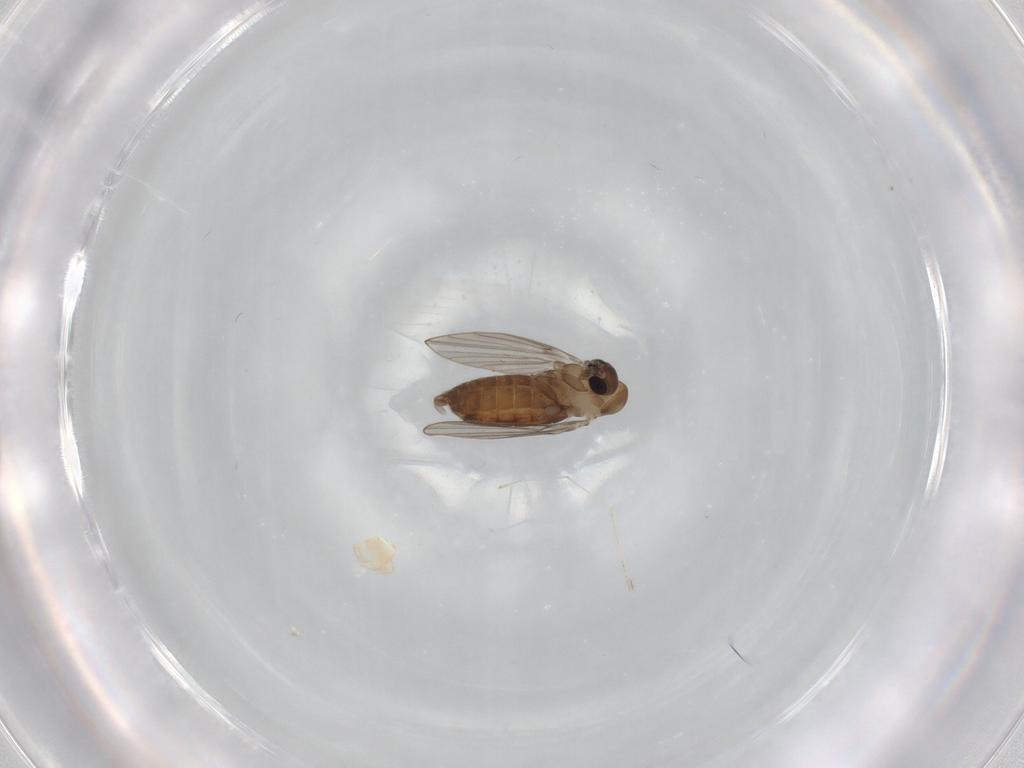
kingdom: Animalia
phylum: Arthropoda
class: Insecta
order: Diptera
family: Psychodidae
